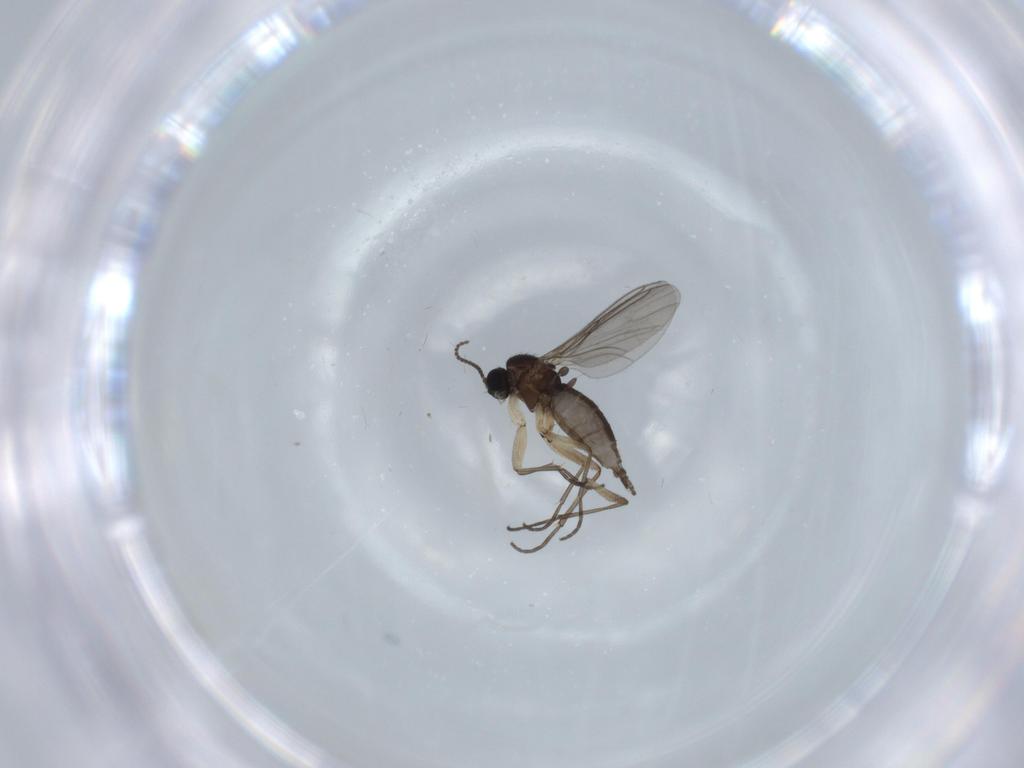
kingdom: Animalia
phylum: Arthropoda
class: Insecta
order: Diptera
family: Sciaridae
